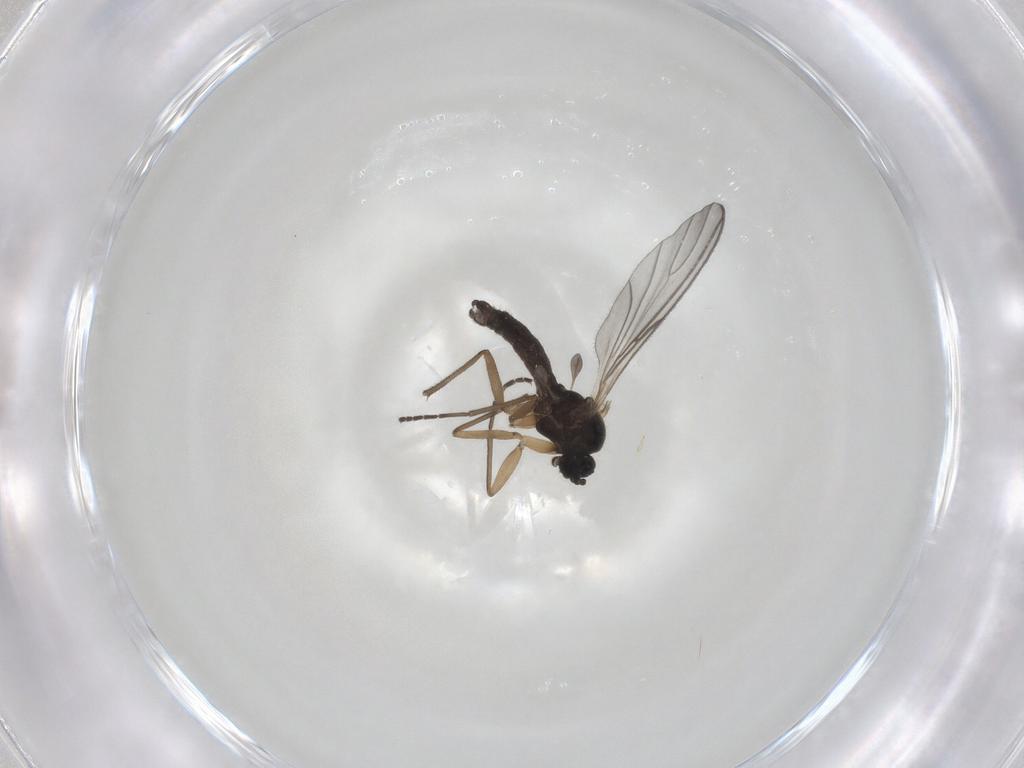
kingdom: Animalia
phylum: Arthropoda
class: Insecta
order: Diptera
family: Sciaridae
